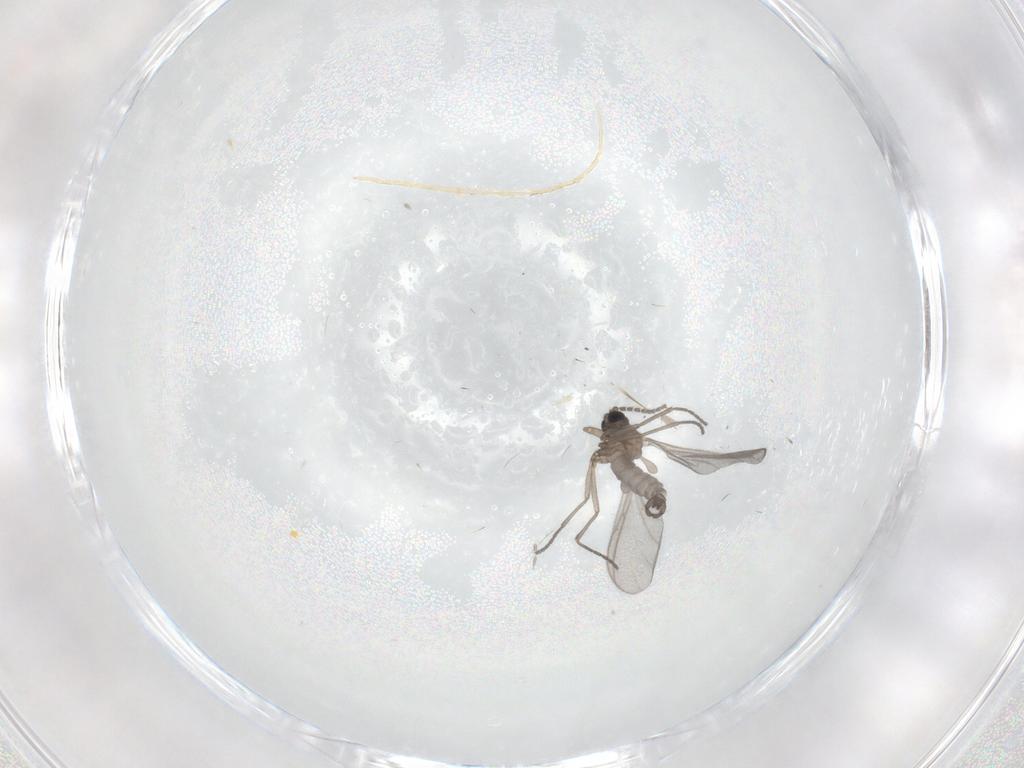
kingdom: Animalia
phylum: Arthropoda
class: Insecta
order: Diptera
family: Sciaridae
